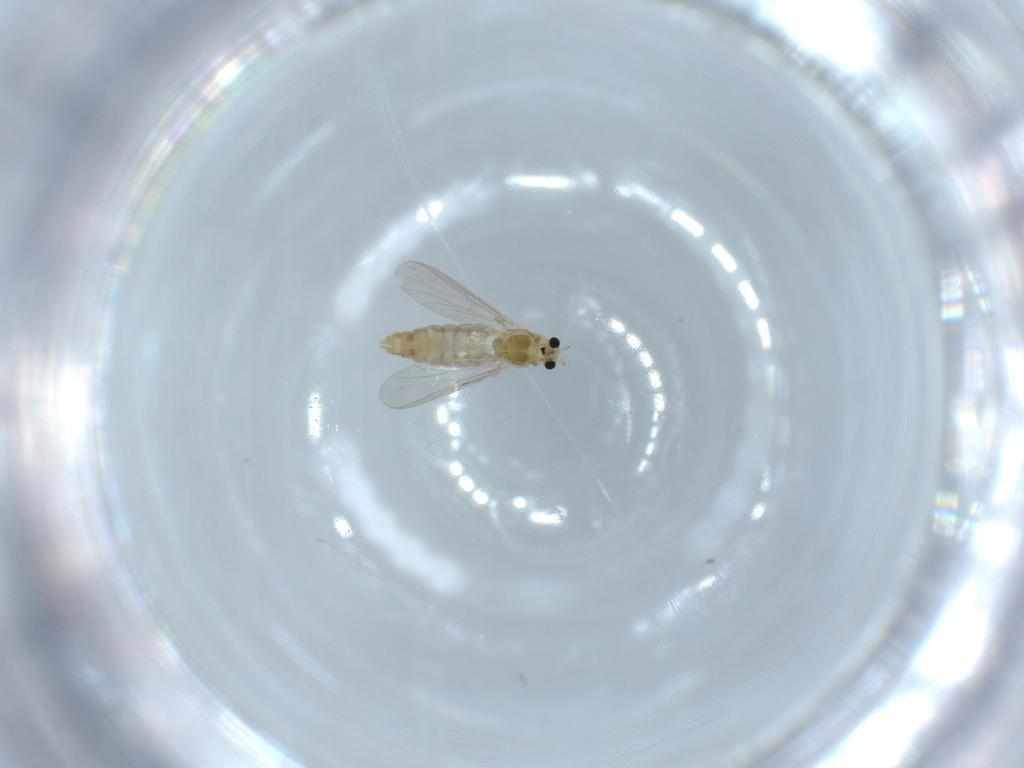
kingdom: Animalia
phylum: Arthropoda
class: Insecta
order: Diptera
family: Chironomidae
